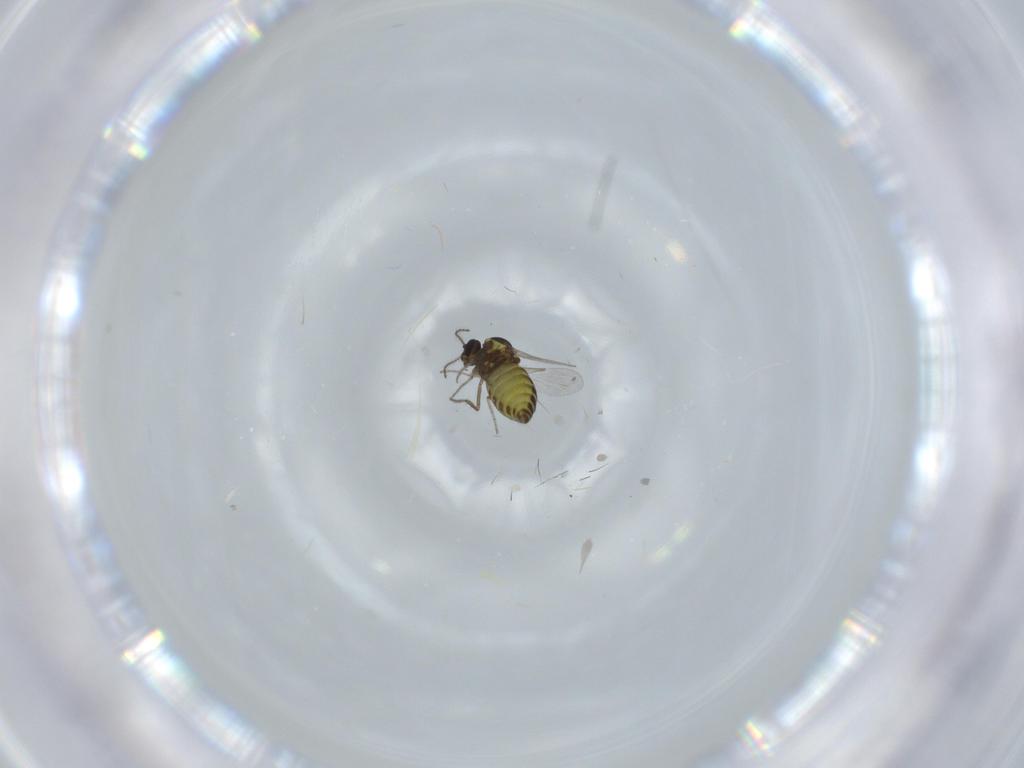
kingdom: Animalia
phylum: Arthropoda
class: Insecta
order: Diptera
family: Ceratopogonidae
